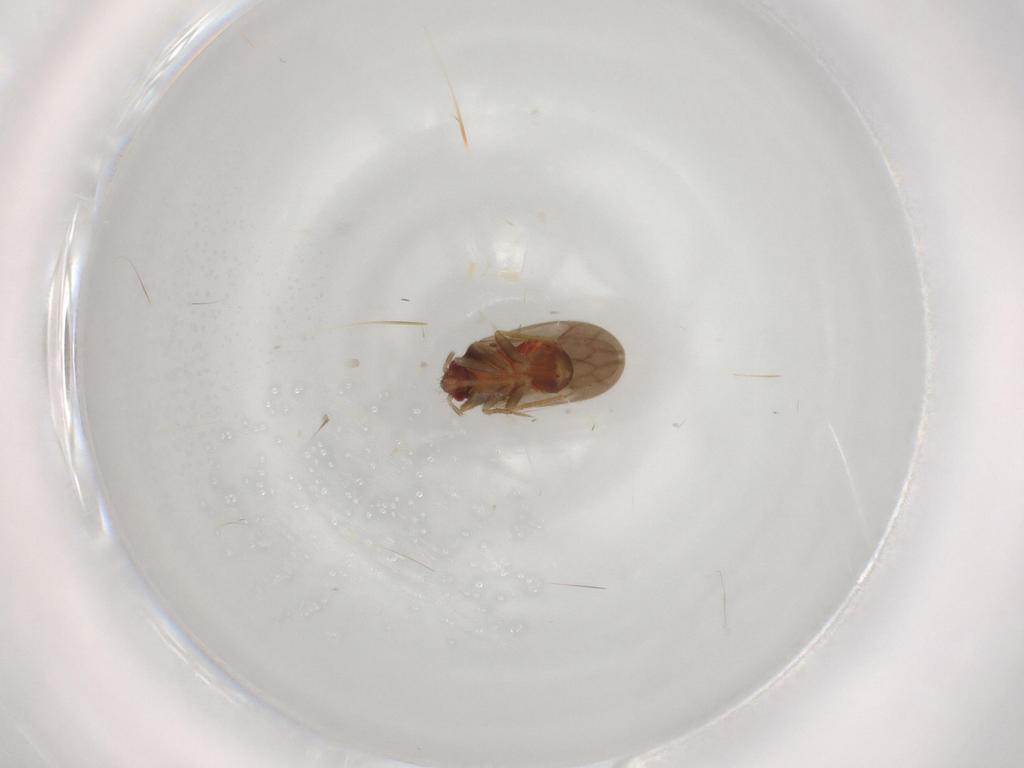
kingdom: Animalia
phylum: Arthropoda
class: Insecta
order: Hemiptera
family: Ceratocombidae
